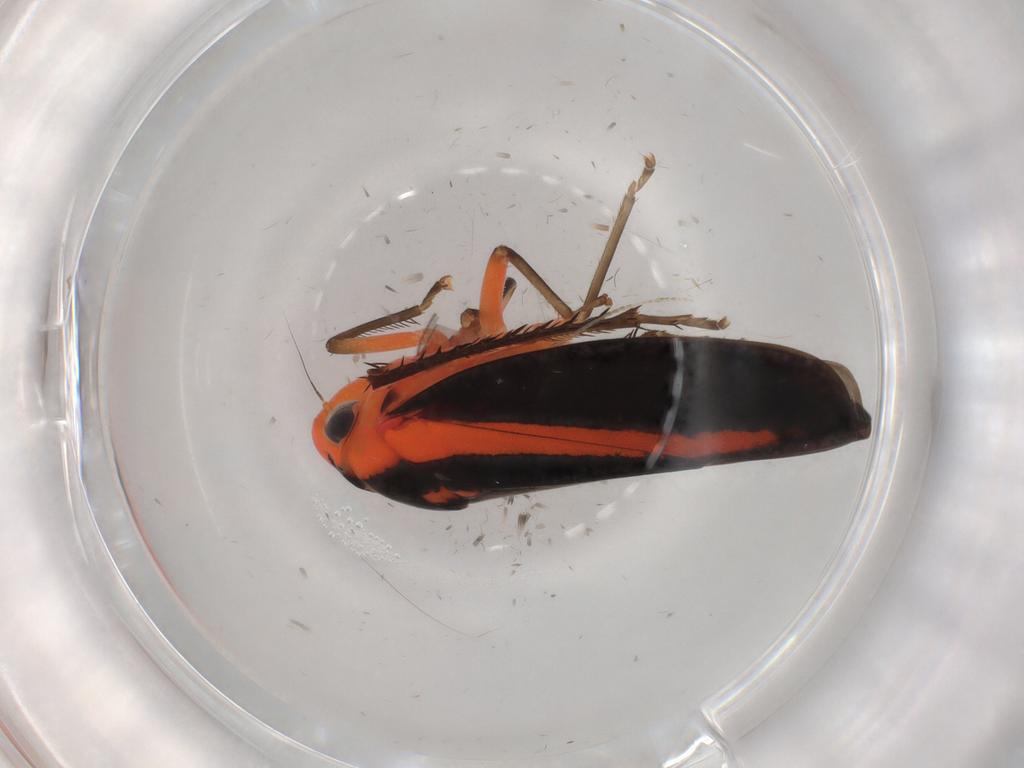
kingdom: Animalia
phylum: Arthropoda
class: Insecta
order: Hemiptera
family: Cicadellidae
